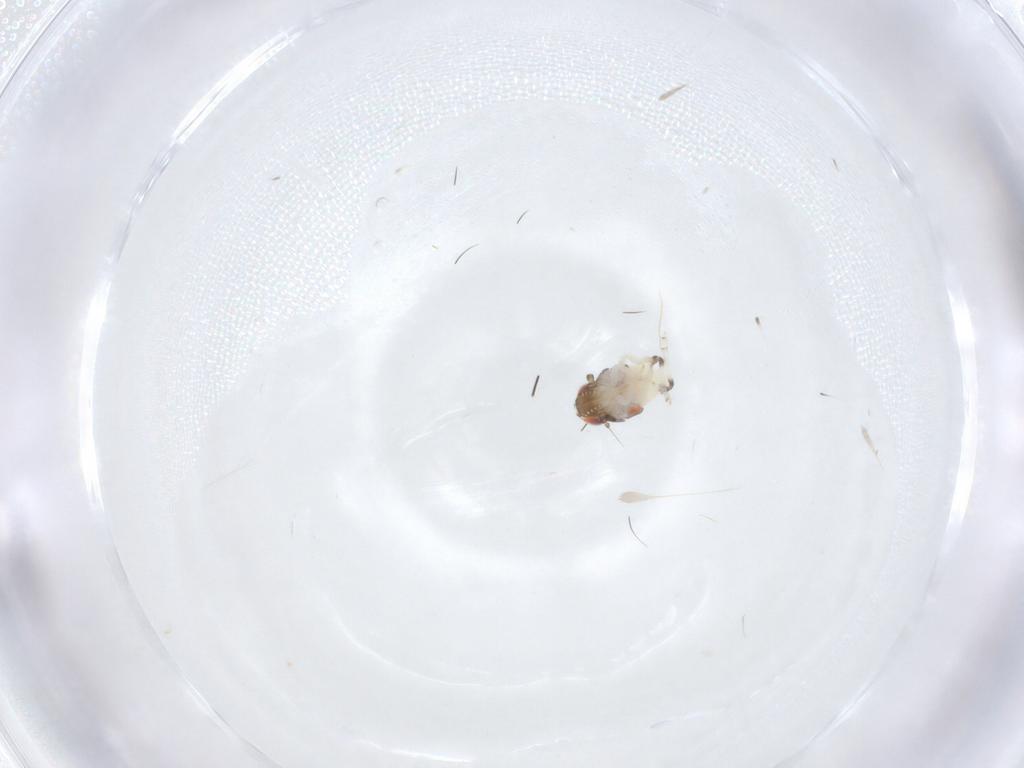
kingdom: Animalia
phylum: Arthropoda
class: Insecta
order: Hemiptera
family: Nogodinidae
